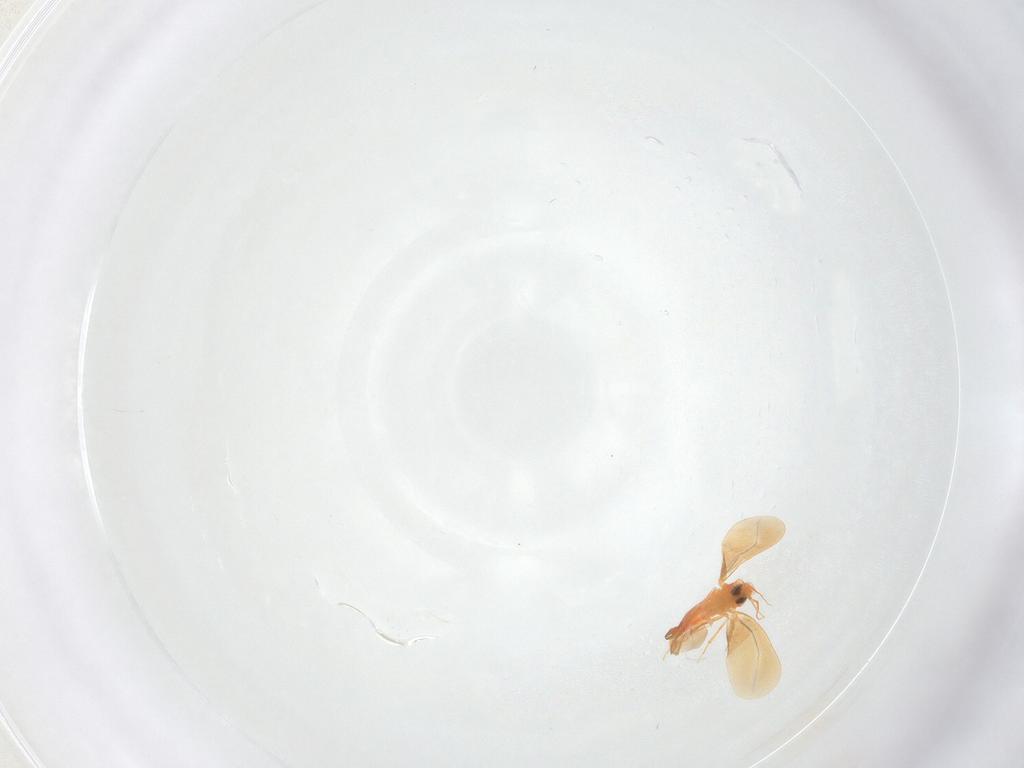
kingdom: Animalia
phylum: Arthropoda
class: Insecta
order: Hemiptera
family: Aleyrodidae
